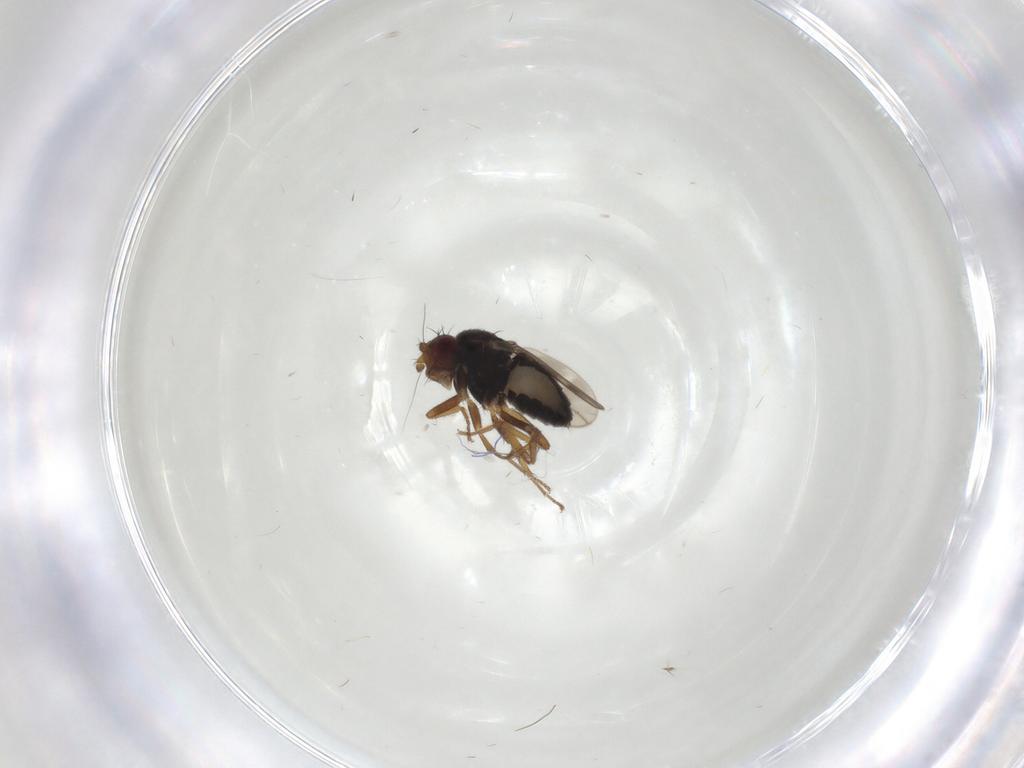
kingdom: Animalia
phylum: Arthropoda
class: Insecta
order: Diptera
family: Sphaeroceridae
